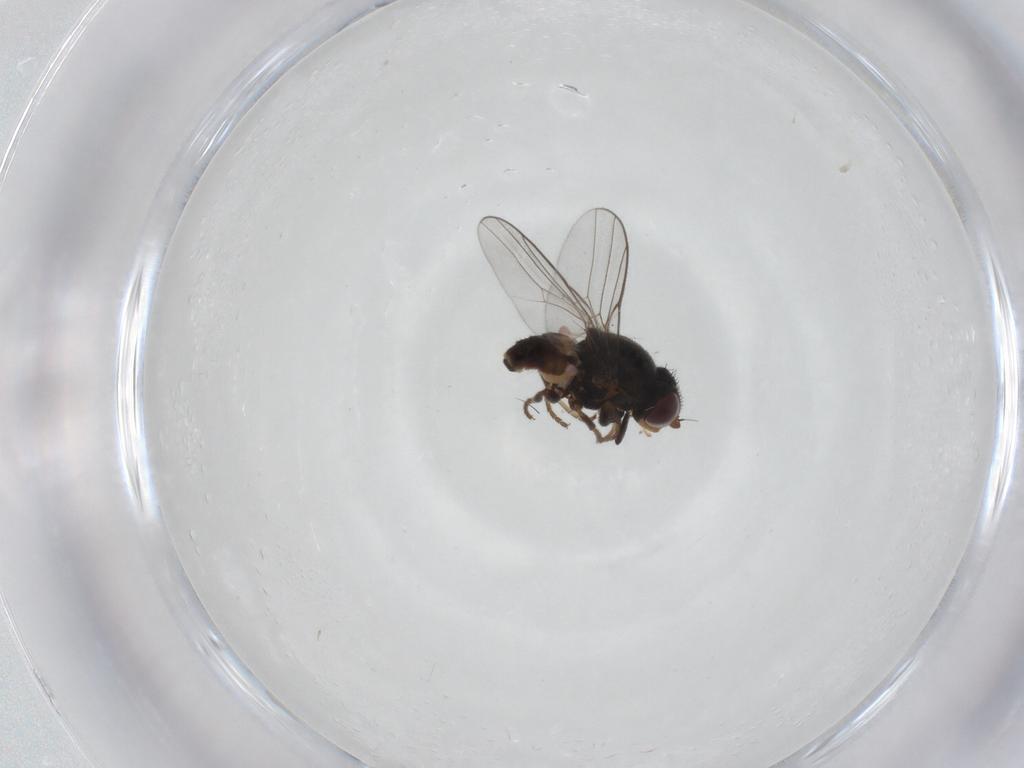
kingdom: Animalia
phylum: Arthropoda
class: Insecta
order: Diptera
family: Chloropidae
